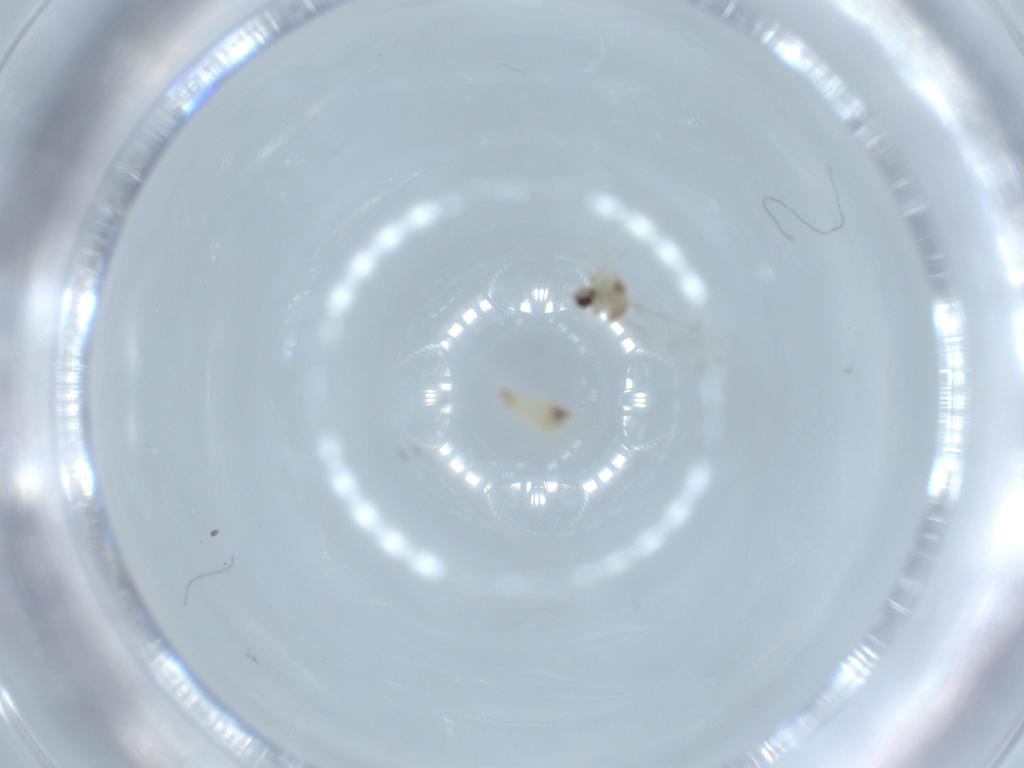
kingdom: Animalia
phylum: Arthropoda
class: Insecta
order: Diptera
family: Cecidomyiidae
